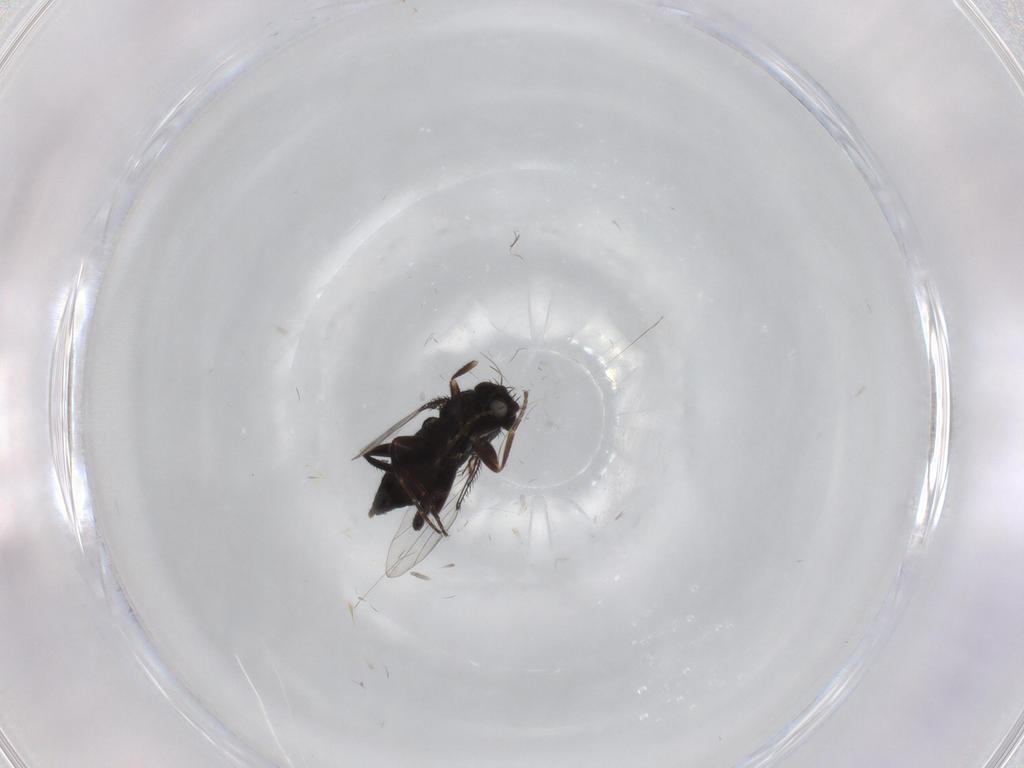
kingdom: Animalia
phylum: Arthropoda
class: Insecta
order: Diptera
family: Phoridae
